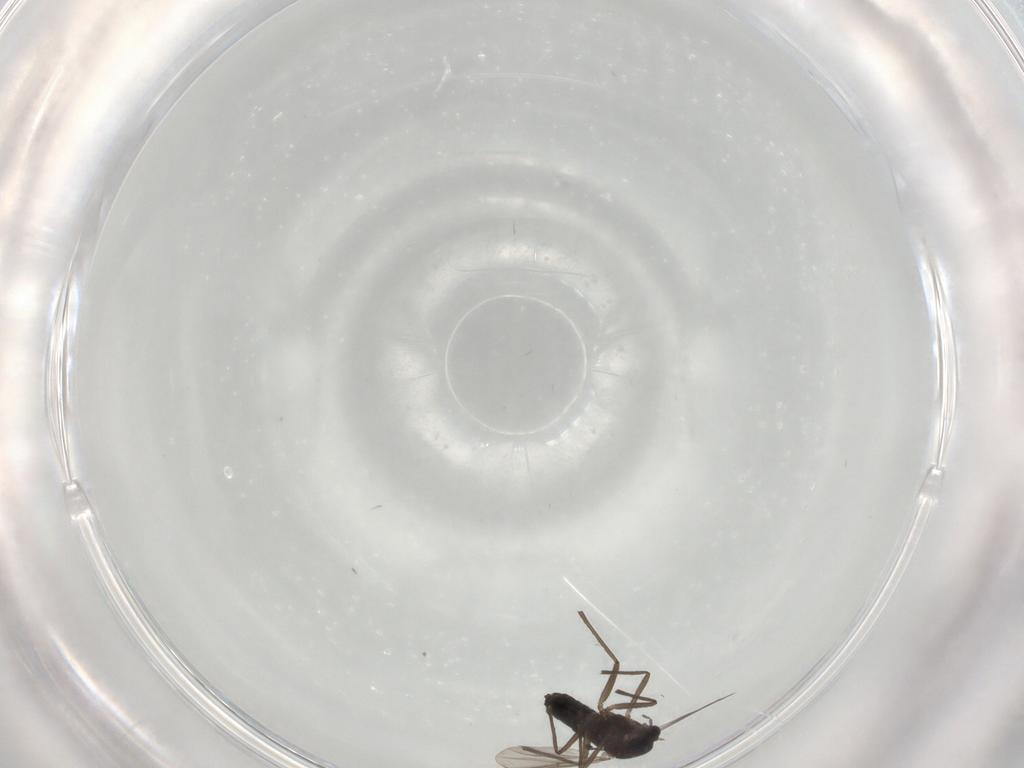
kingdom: Animalia
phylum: Arthropoda
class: Insecta
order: Diptera
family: Chironomidae
